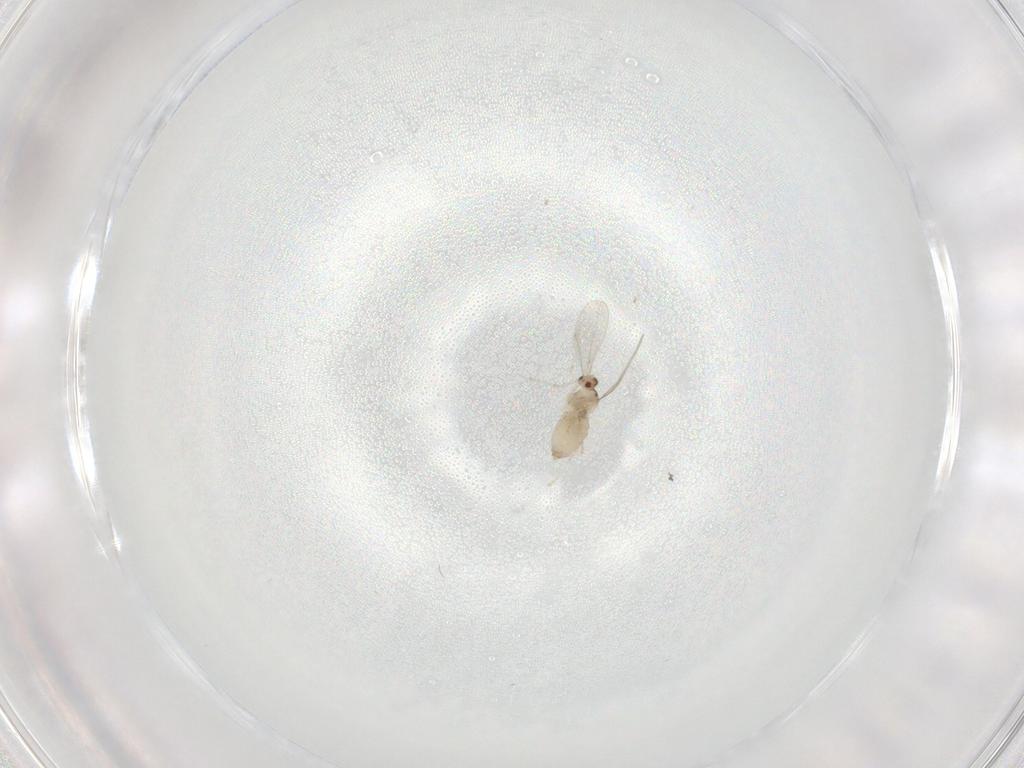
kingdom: Animalia
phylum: Arthropoda
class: Insecta
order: Diptera
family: Cecidomyiidae
